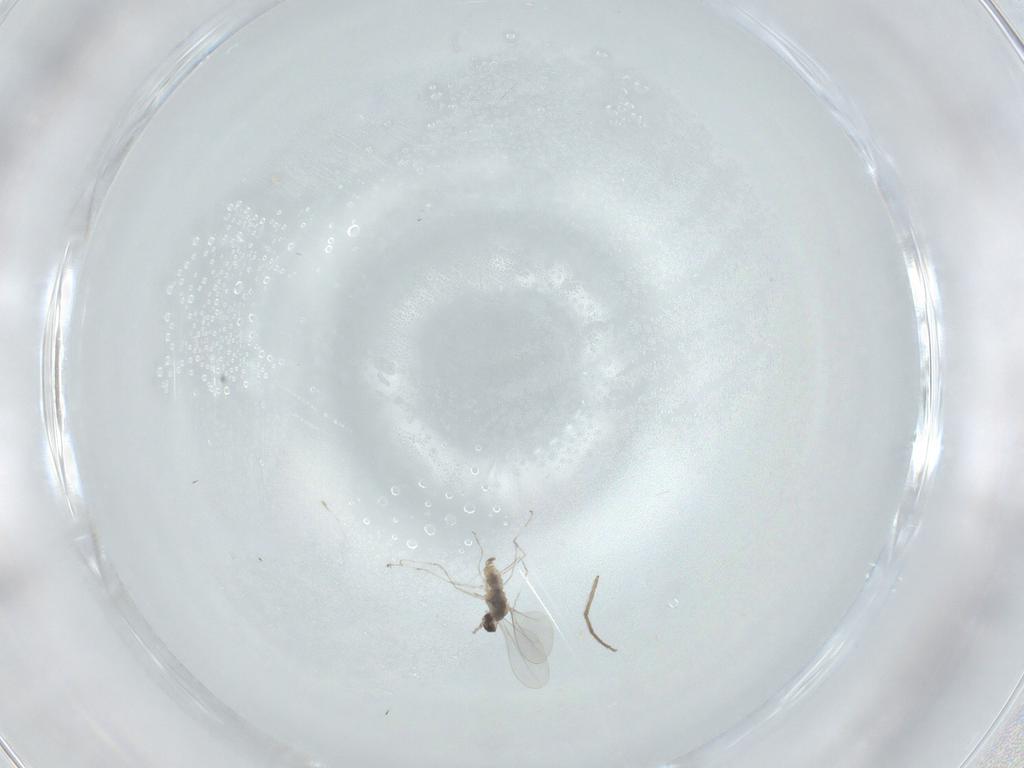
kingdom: Animalia
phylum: Arthropoda
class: Insecta
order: Diptera
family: Cecidomyiidae
